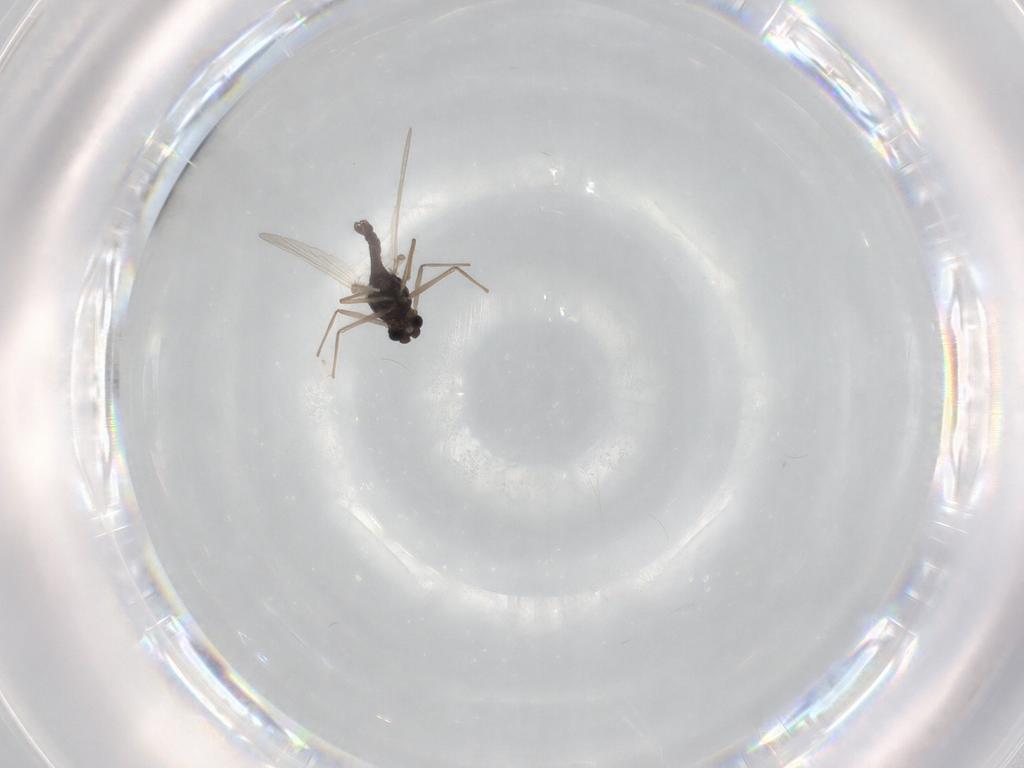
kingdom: Animalia
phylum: Arthropoda
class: Insecta
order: Diptera
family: Chironomidae
